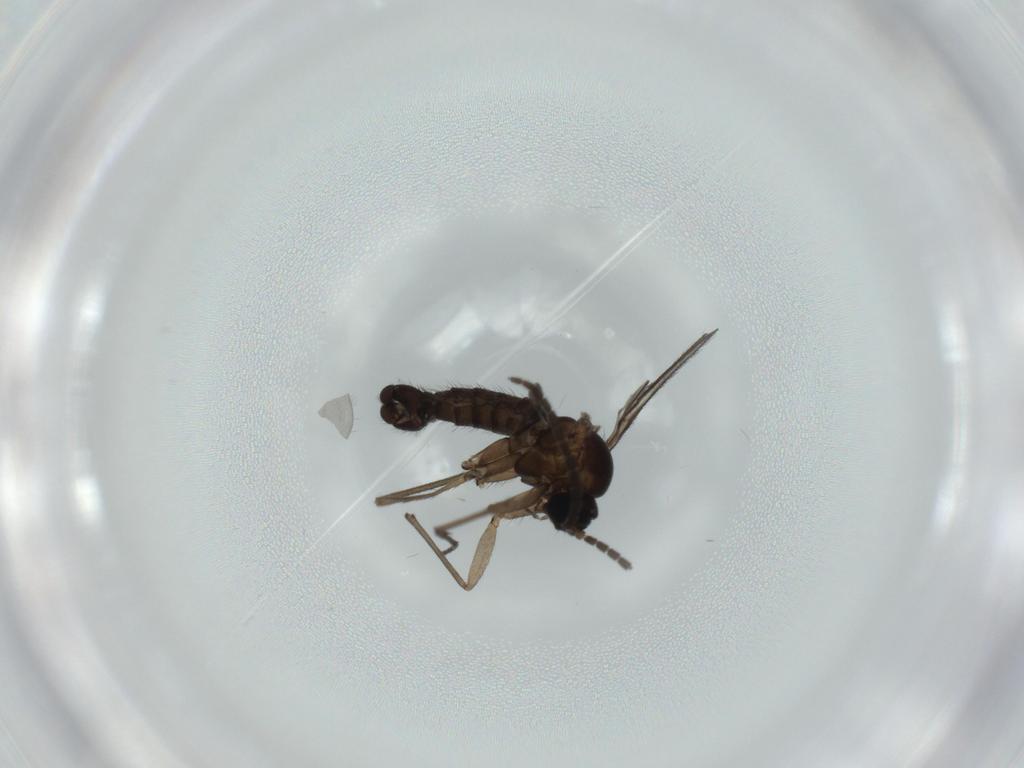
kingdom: Animalia
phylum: Arthropoda
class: Insecta
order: Diptera
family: Sciaridae
